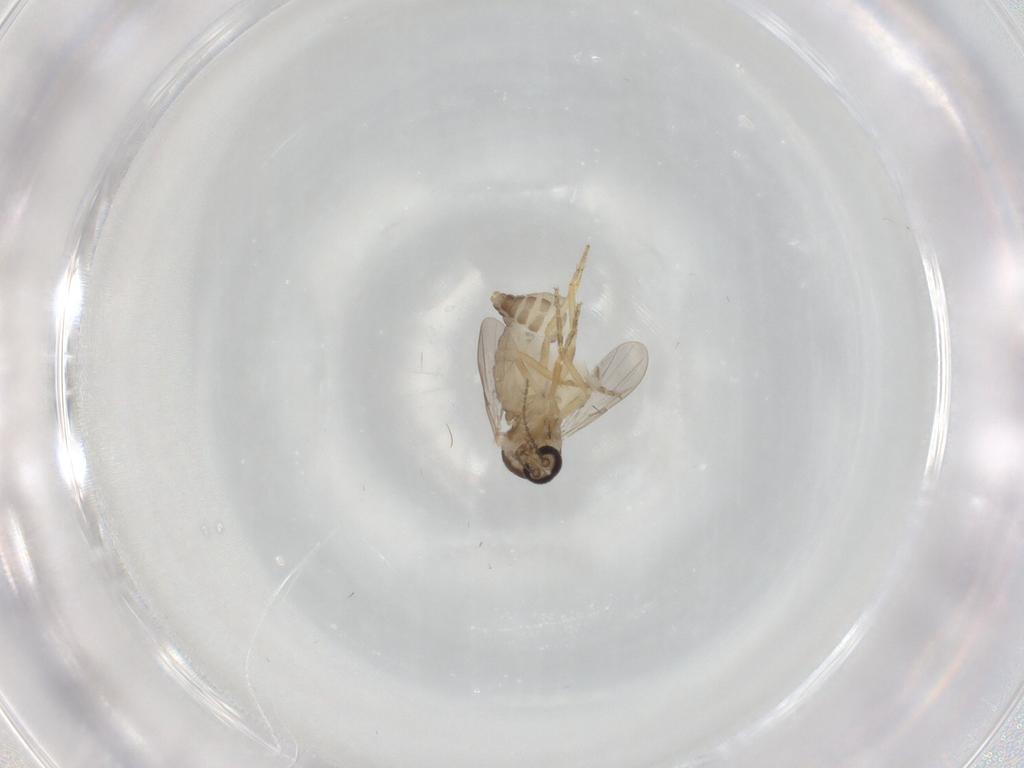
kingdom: Animalia
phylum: Arthropoda
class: Insecta
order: Diptera
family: Ceratopogonidae
